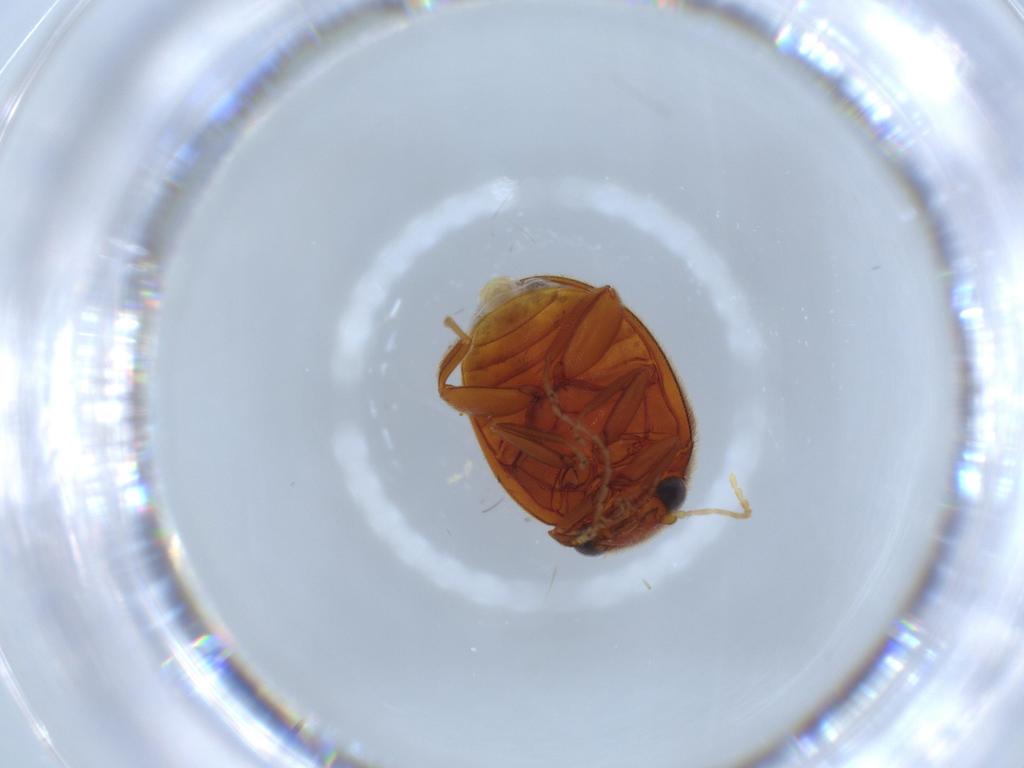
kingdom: Animalia
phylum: Arthropoda
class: Insecta
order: Coleoptera
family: Scirtidae
